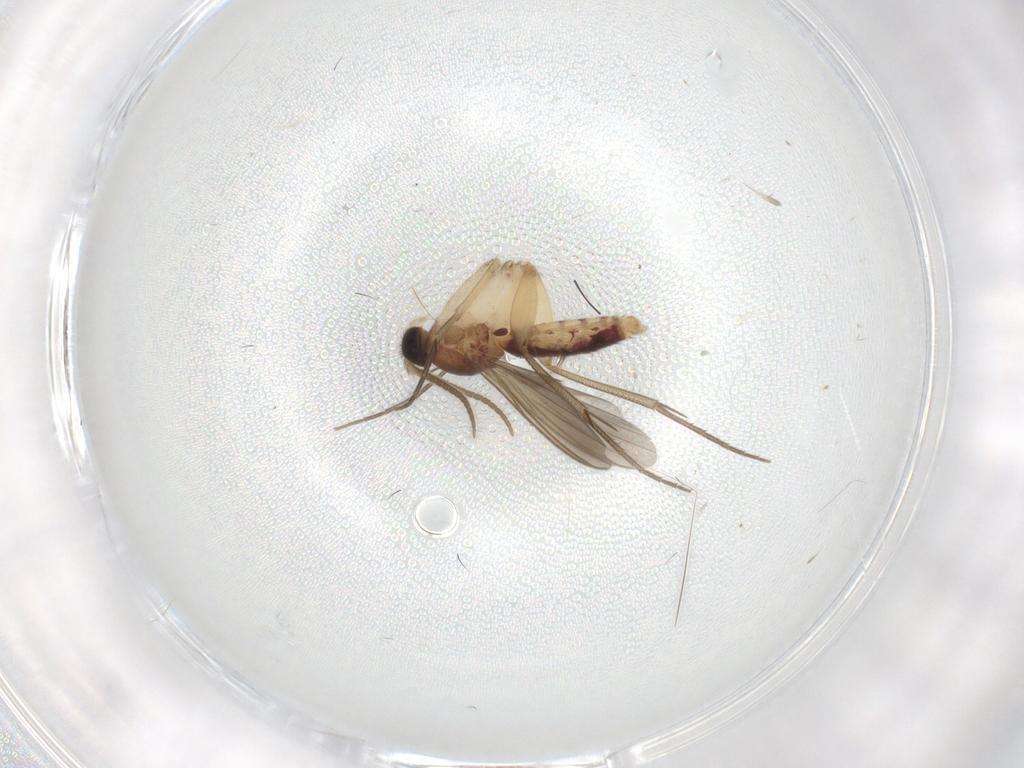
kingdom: Animalia
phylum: Arthropoda
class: Insecta
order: Diptera
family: Mycetophilidae
